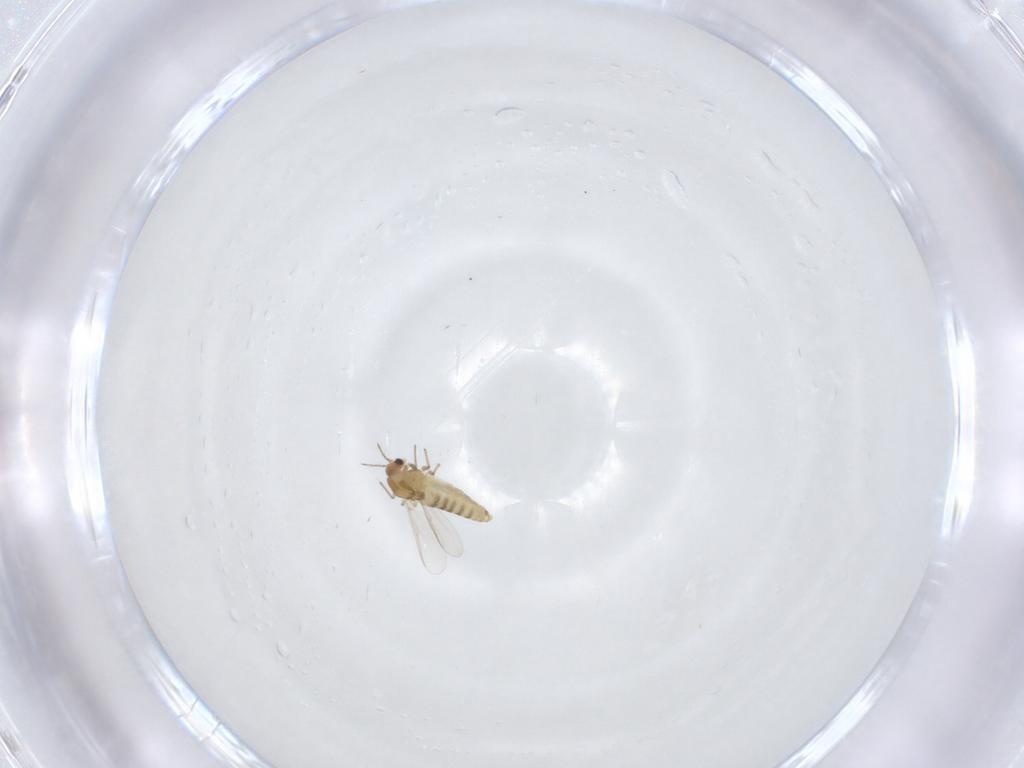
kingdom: Animalia
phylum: Arthropoda
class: Insecta
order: Diptera
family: Chironomidae
